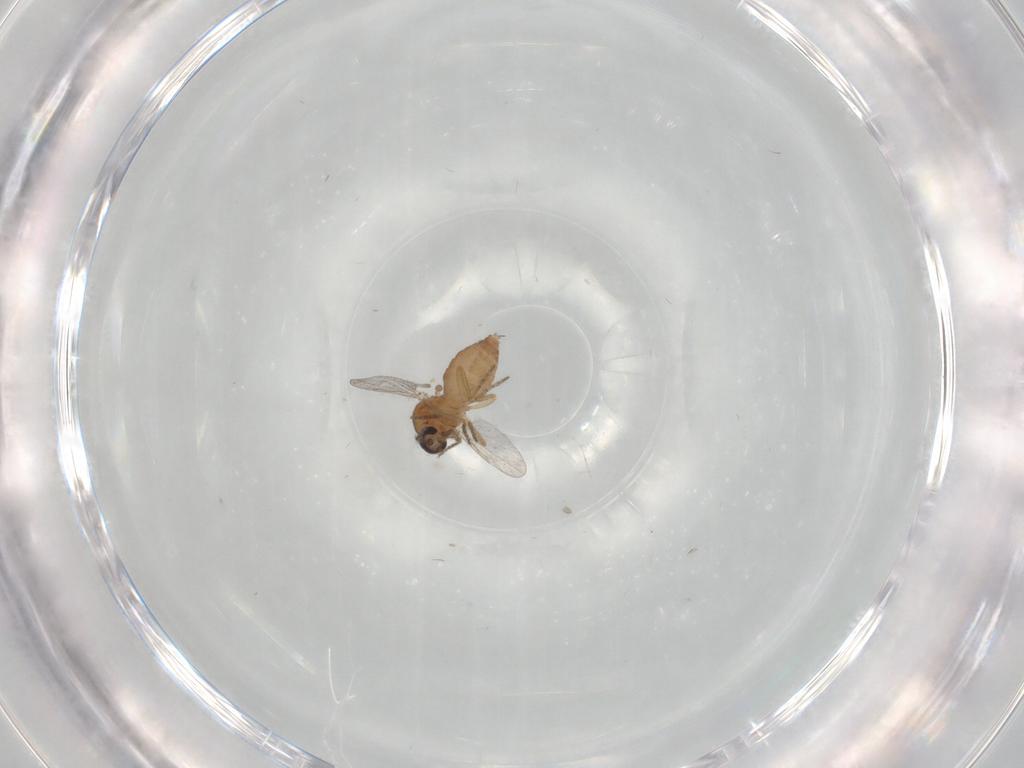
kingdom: Animalia
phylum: Arthropoda
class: Insecta
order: Diptera
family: Ceratopogonidae
